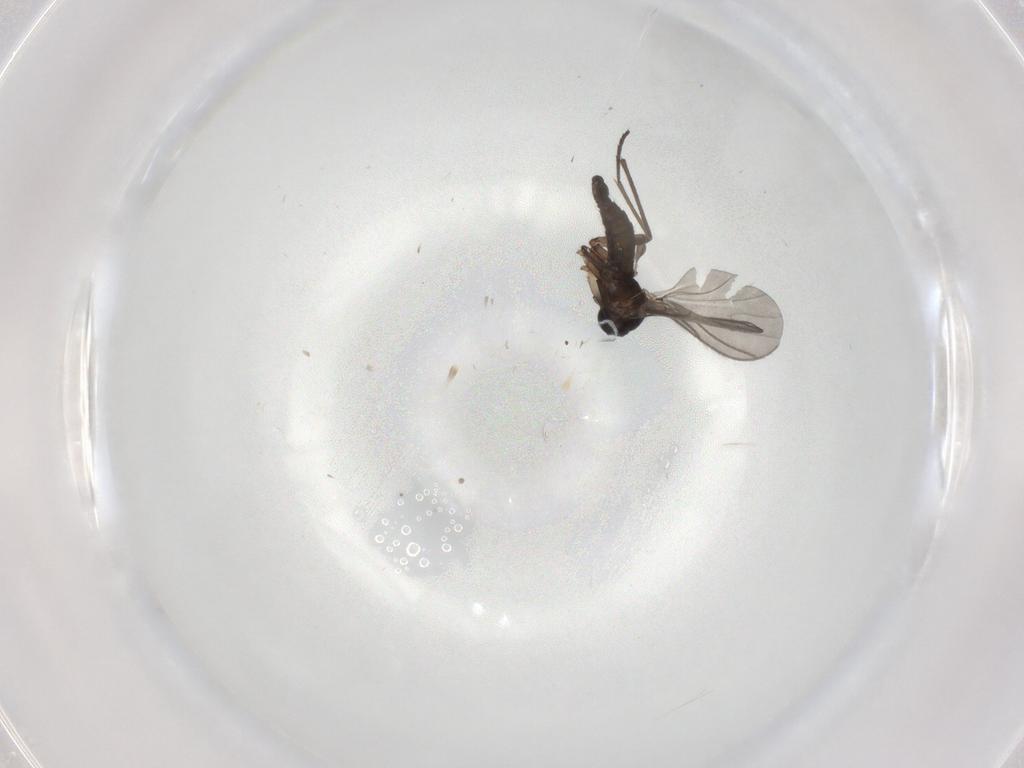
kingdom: Animalia
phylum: Arthropoda
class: Insecta
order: Diptera
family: Sciaridae
